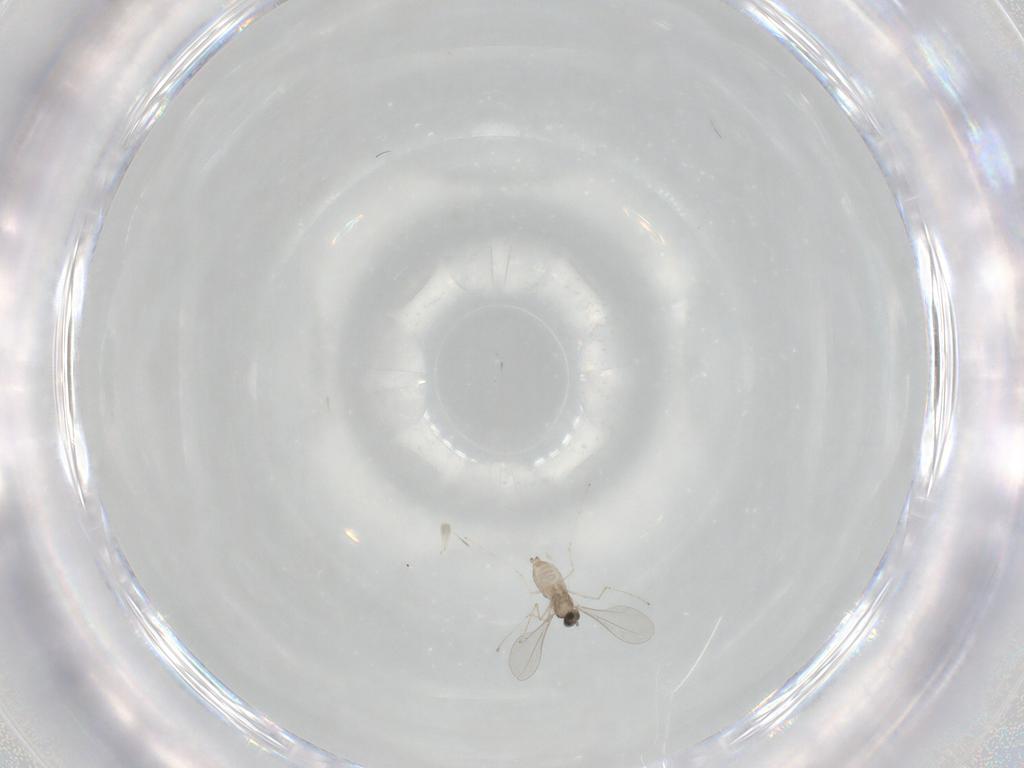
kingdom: Animalia
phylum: Arthropoda
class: Insecta
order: Diptera
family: Cecidomyiidae
